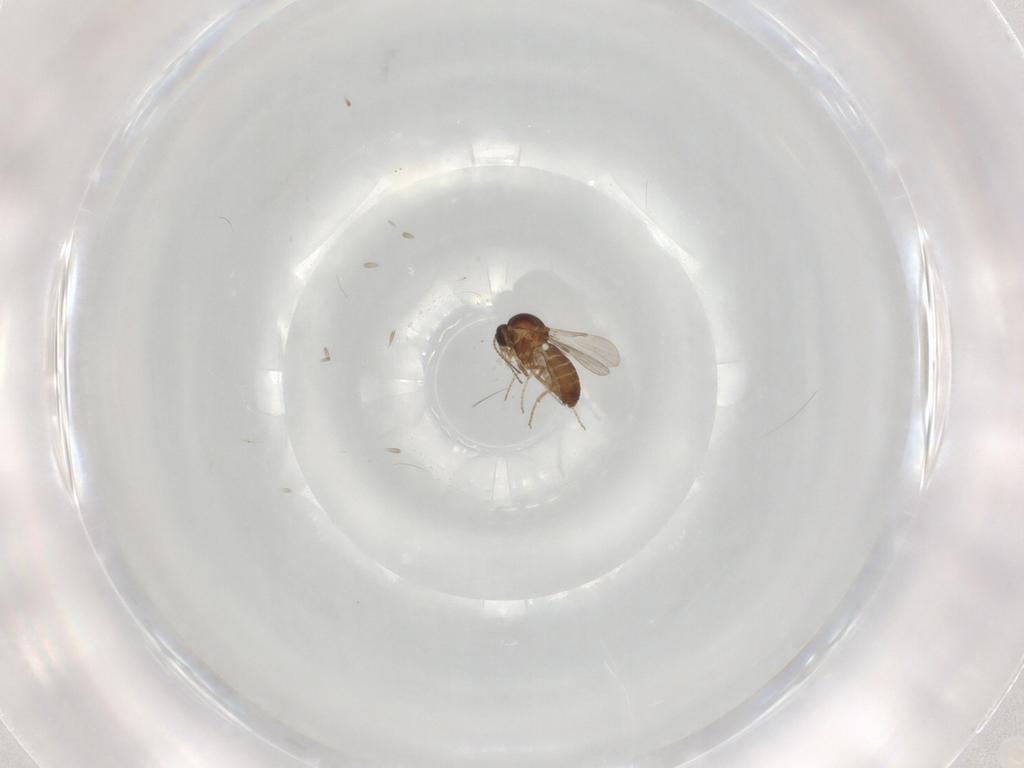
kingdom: Animalia
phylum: Arthropoda
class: Insecta
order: Diptera
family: Ceratopogonidae
